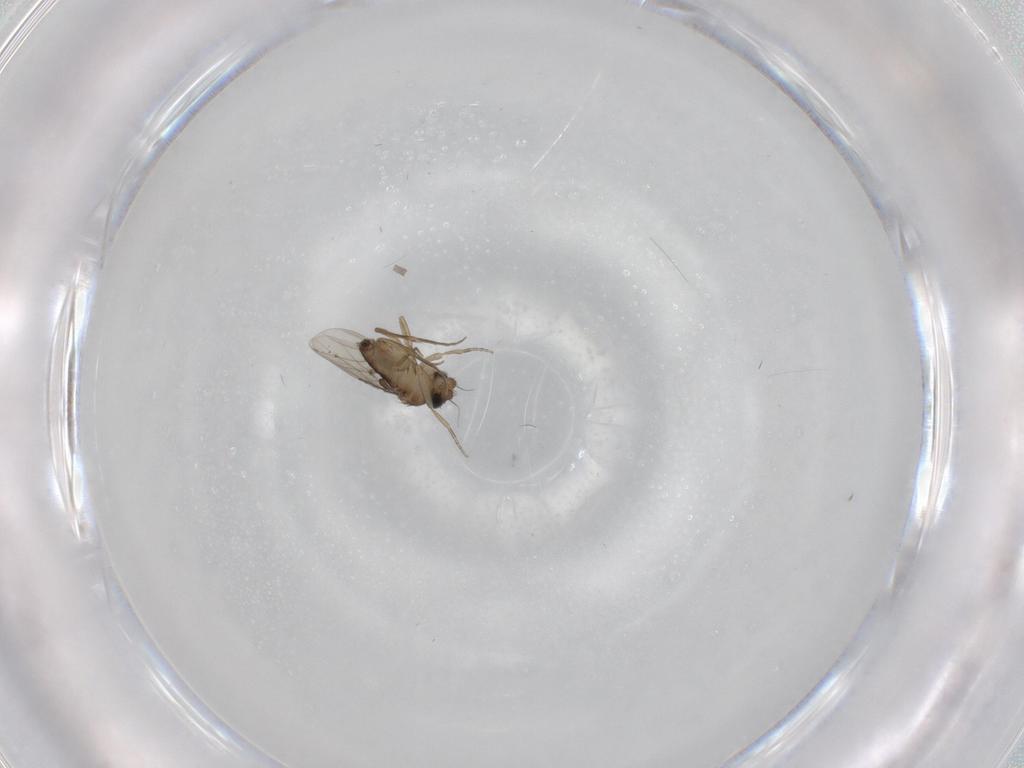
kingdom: Animalia
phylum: Arthropoda
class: Insecta
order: Diptera
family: Phoridae
